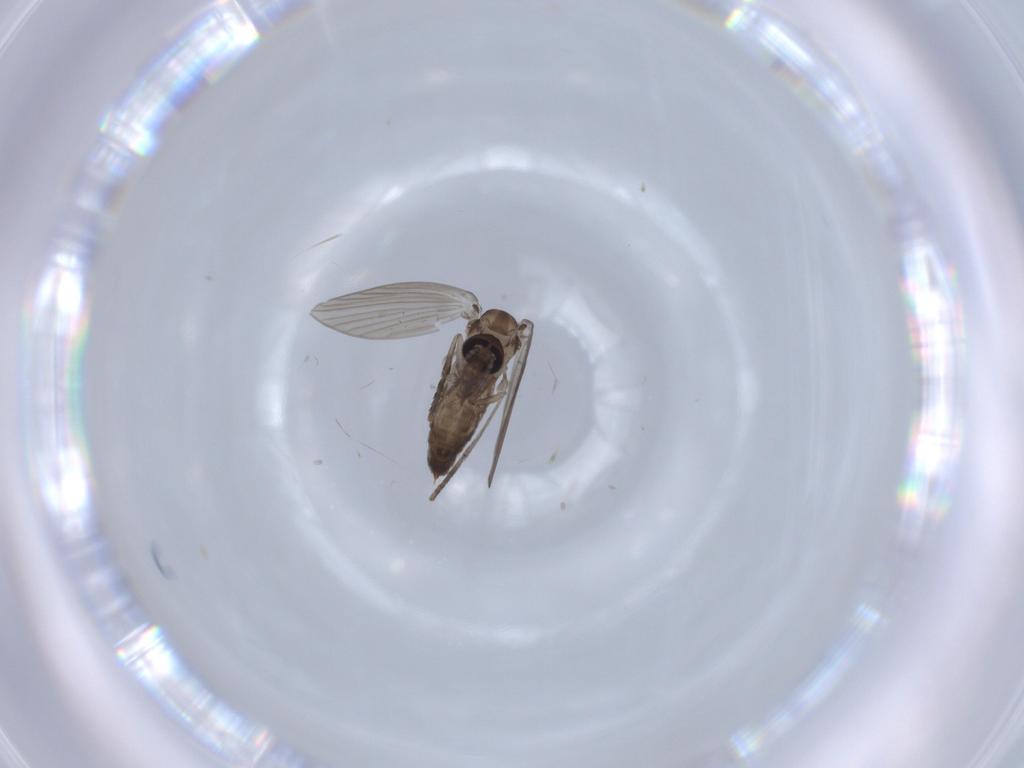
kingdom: Animalia
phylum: Arthropoda
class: Insecta
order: Diptera
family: Psychodidae
